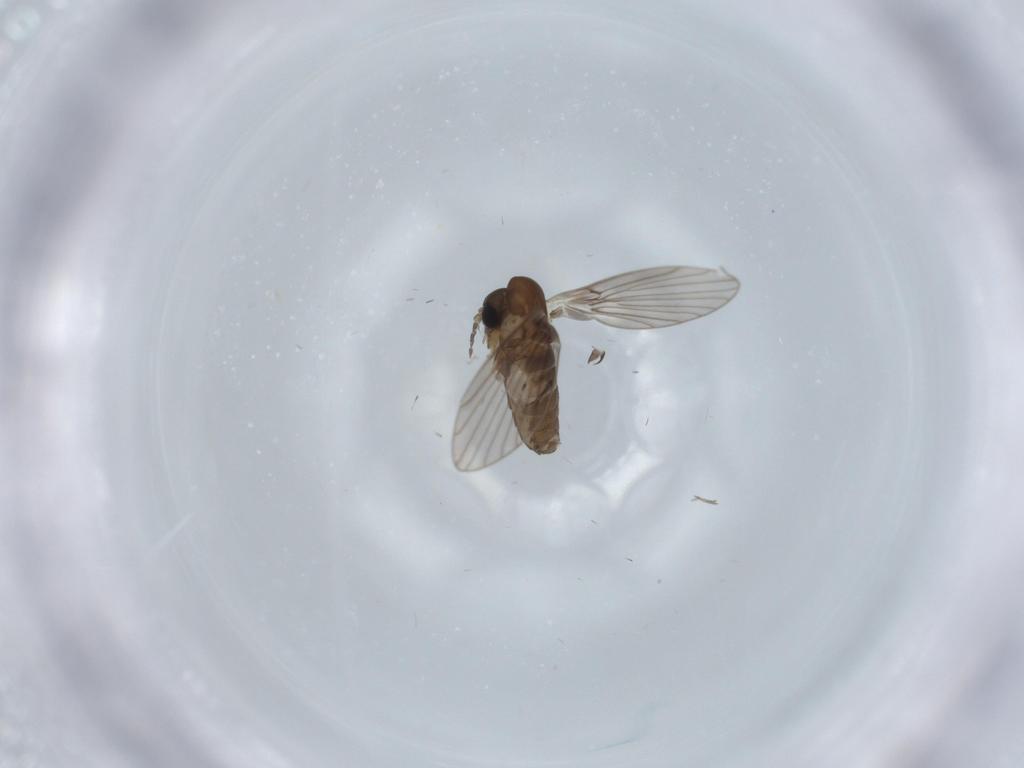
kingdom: Animalia
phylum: Arthropoda
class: Insecta
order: Diptera
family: Psychodidae
